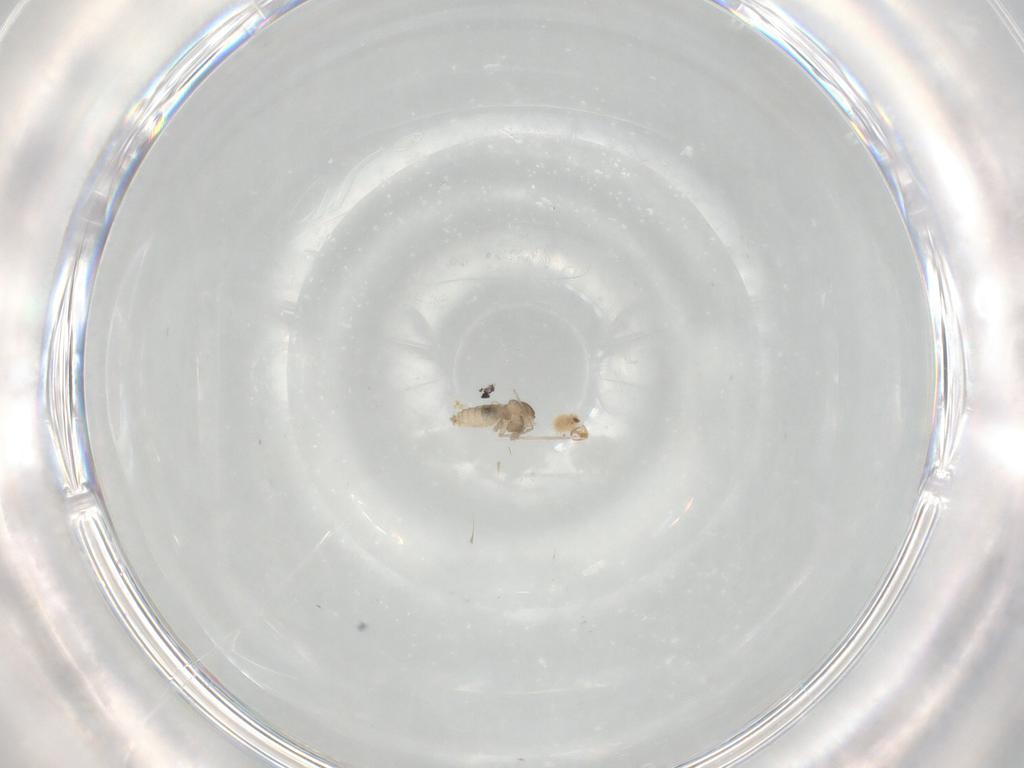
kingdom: Animalia
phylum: Arthropoda
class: Insecta
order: Diptera
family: Cecidomyiidae
